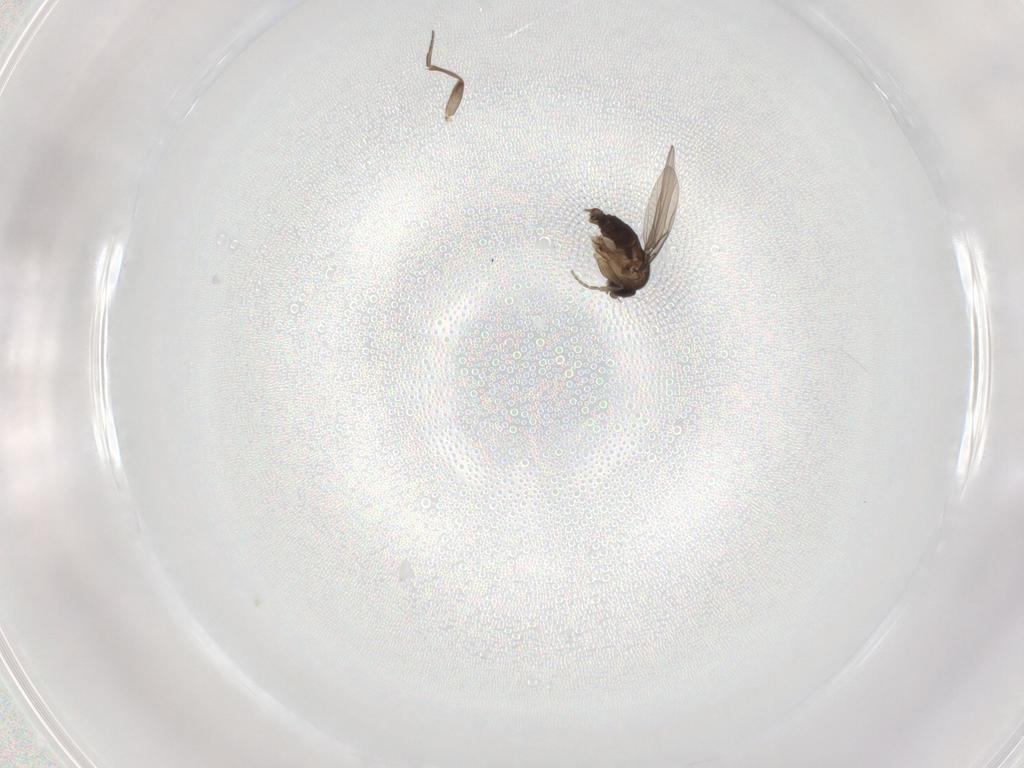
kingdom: Animalia
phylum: Arthropoda
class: Insecta
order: Diptera
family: Phoridae
